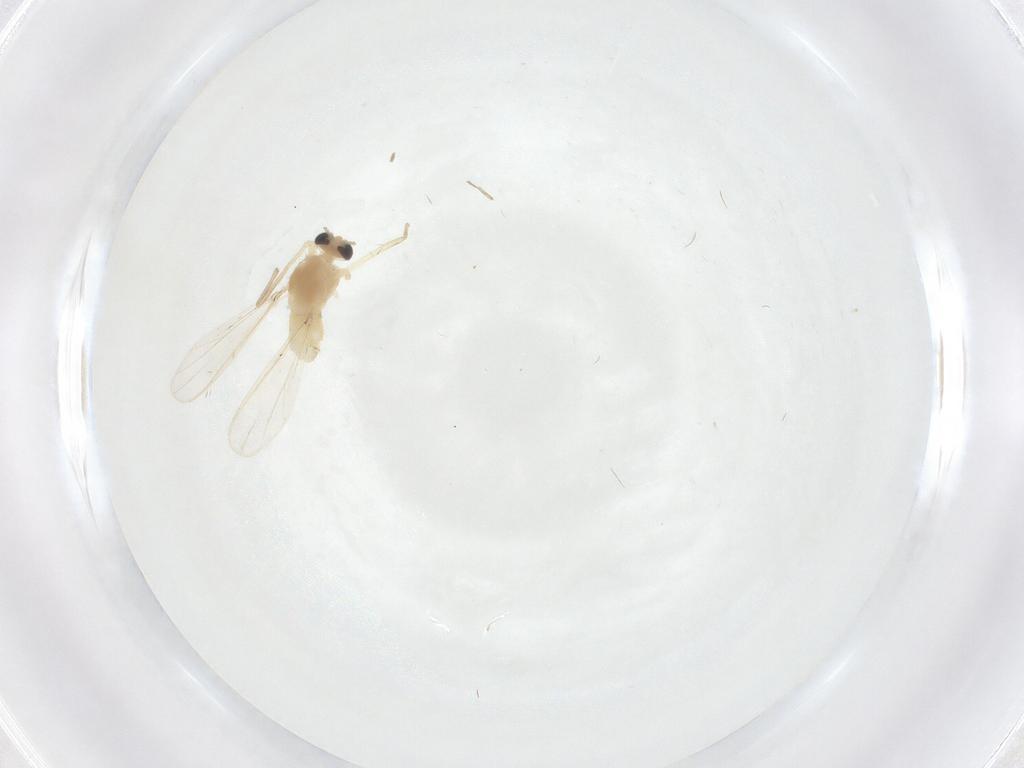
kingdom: Animalia
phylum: Arthropoda
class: Insecta
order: Diptera
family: Chironomidae
